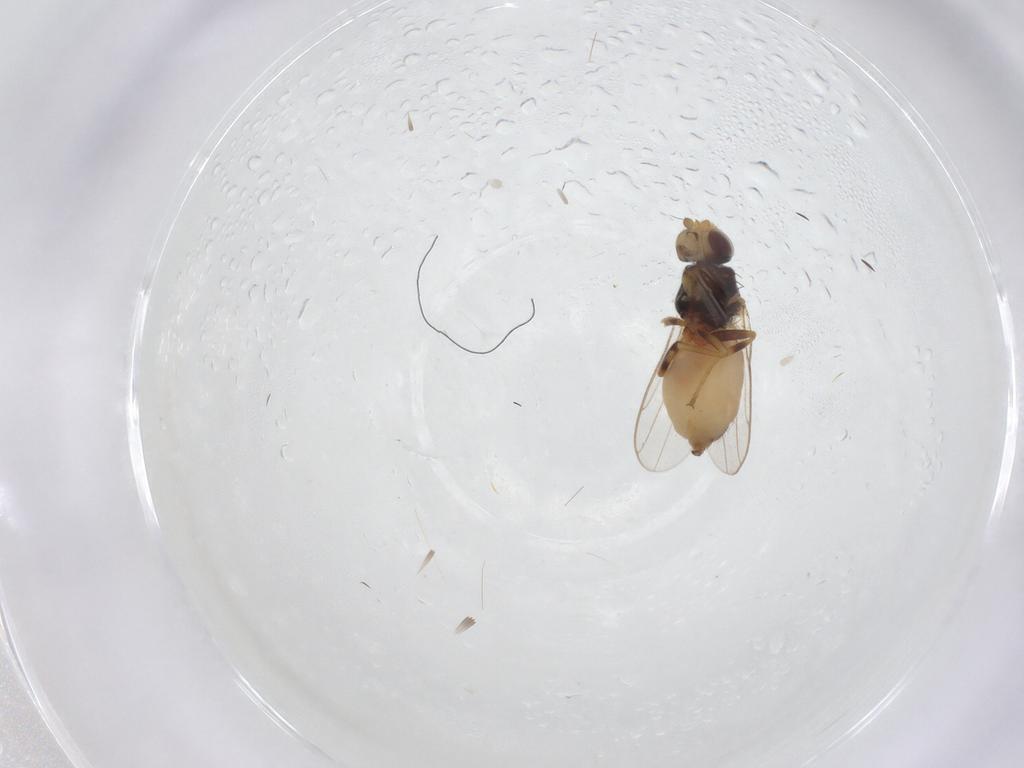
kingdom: Animalia
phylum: Arthropoda
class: Insecta
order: Diptera
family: Chloropidae
